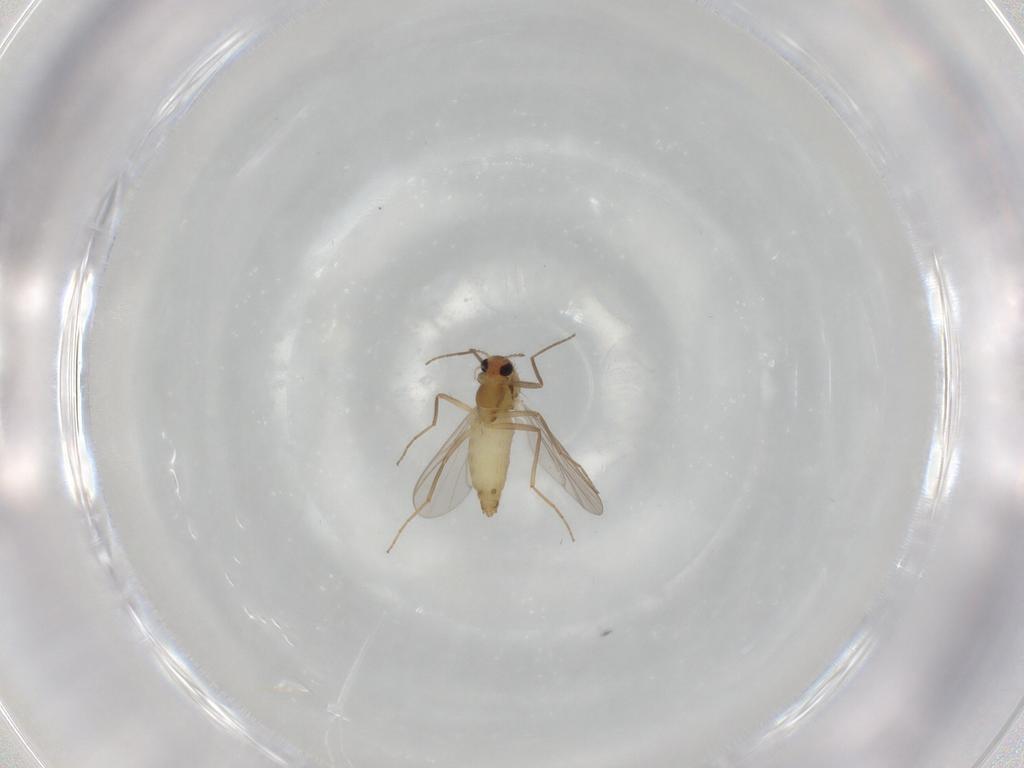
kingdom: Animalia
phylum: Arthropoda
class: Insecta
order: Diptera
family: Chironomidae
